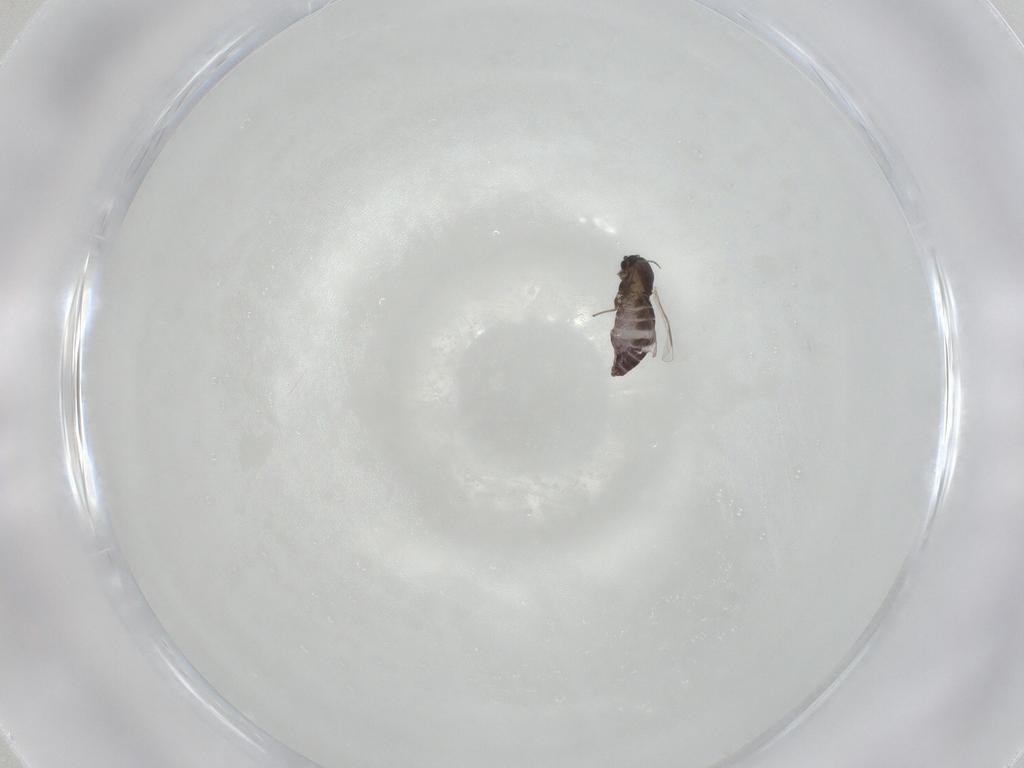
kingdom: Animalia
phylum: Arthropoda
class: Insecta
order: Diptera
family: Chironomidae
